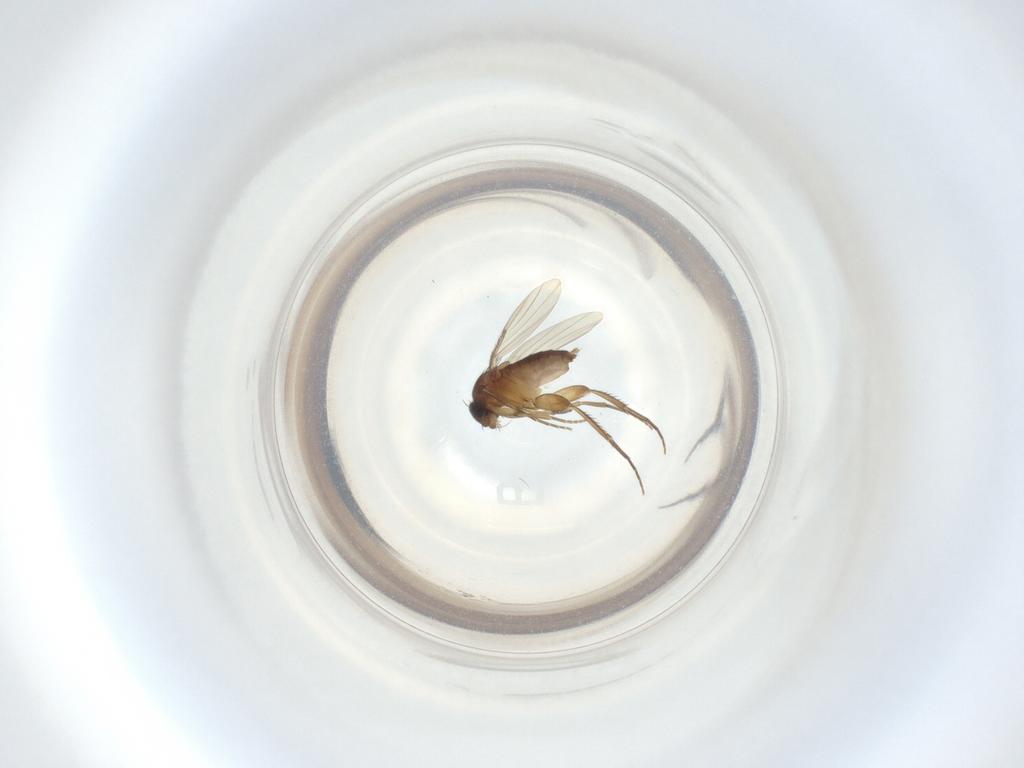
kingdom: Animalia
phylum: Arthropoda
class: Insecta
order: Diptera
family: Phoridae
